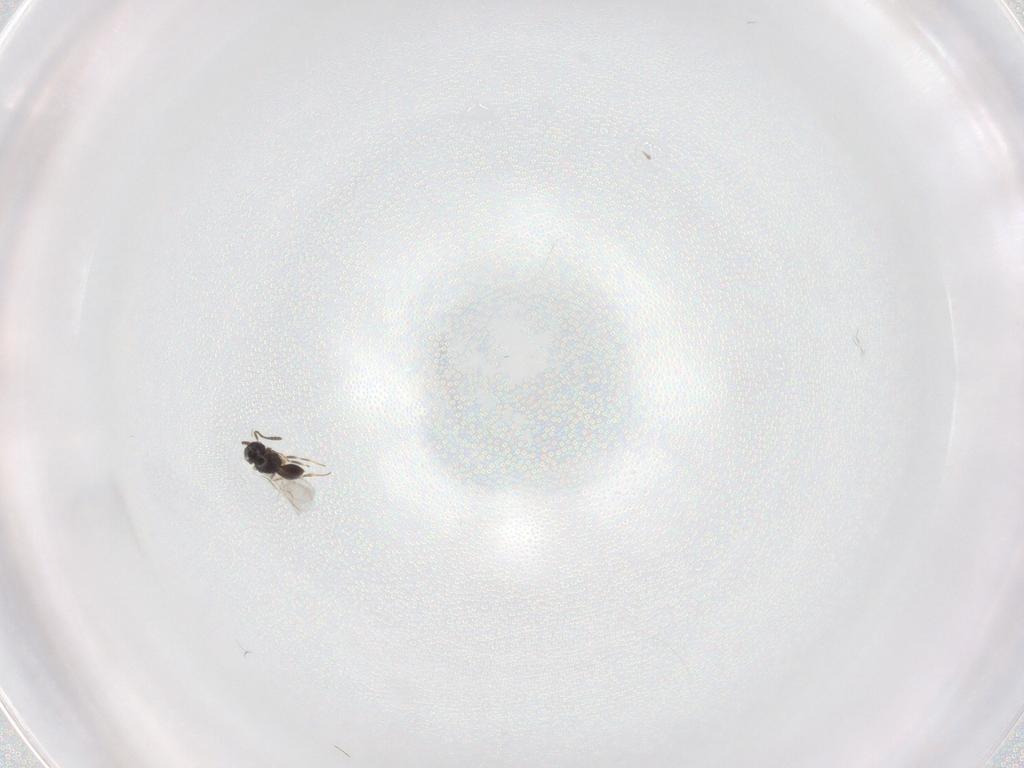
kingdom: Animalia
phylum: Arthropoda
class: Insecta
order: Hymenoptera
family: Scelionidae
